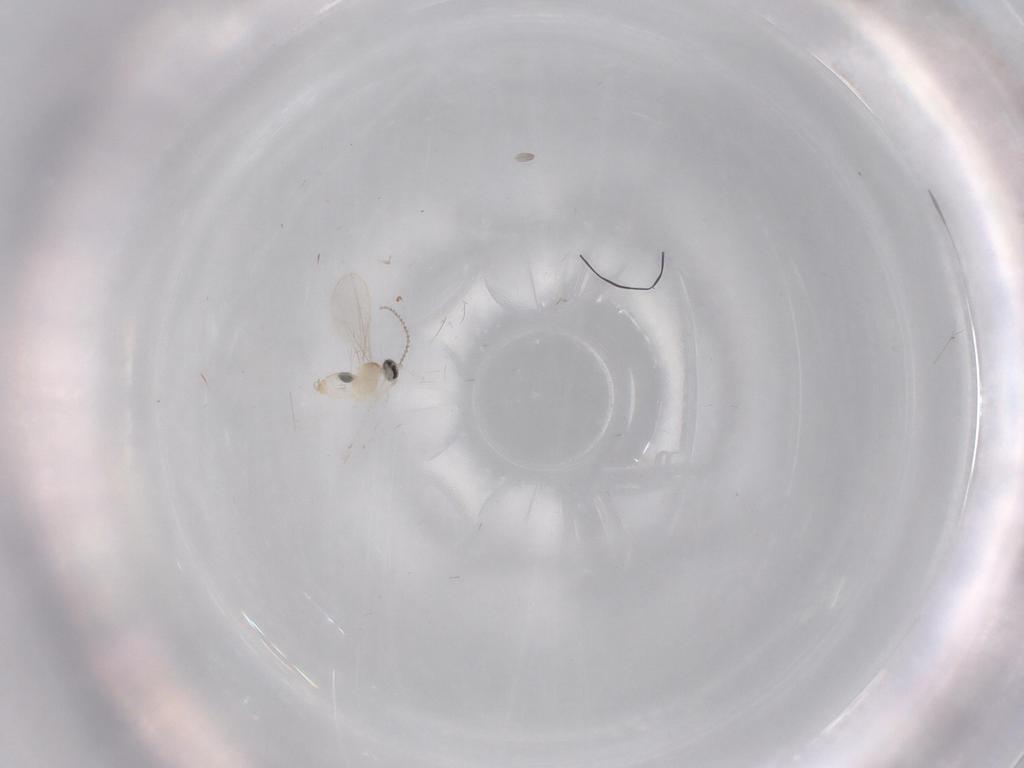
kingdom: Animalia
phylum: Arthropoda
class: Insecta
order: Diptera
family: Cecidomyiidae
